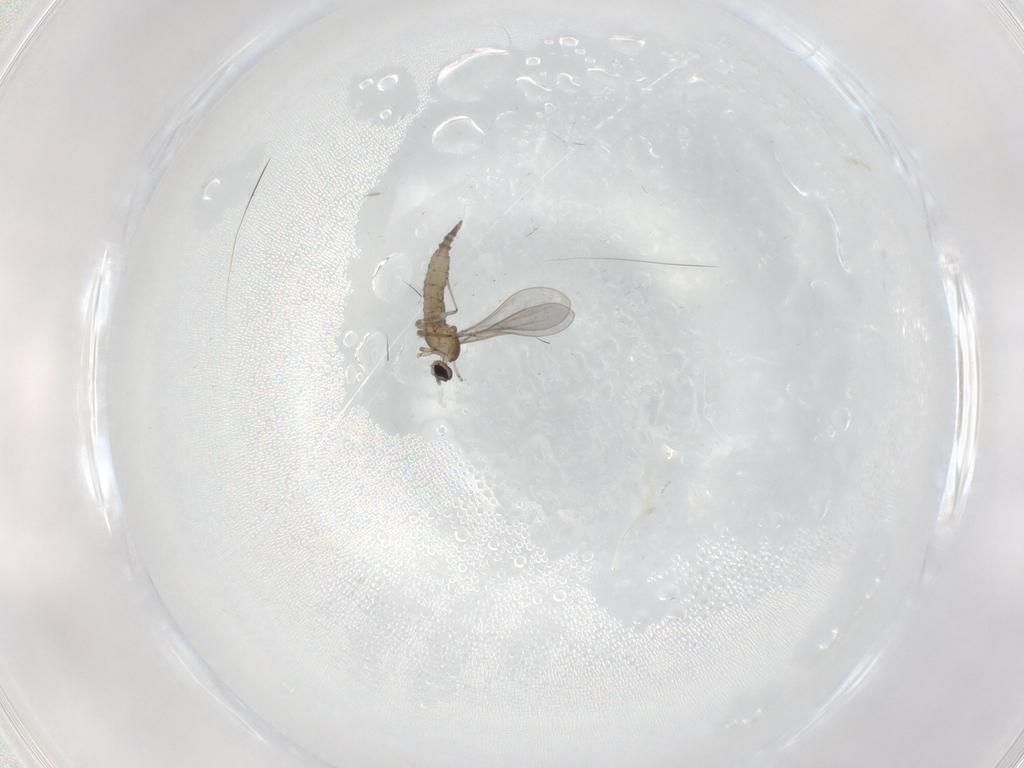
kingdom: Animalia
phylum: Arthropoda
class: Insecta
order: Diptera
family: Cecidomyiidae
